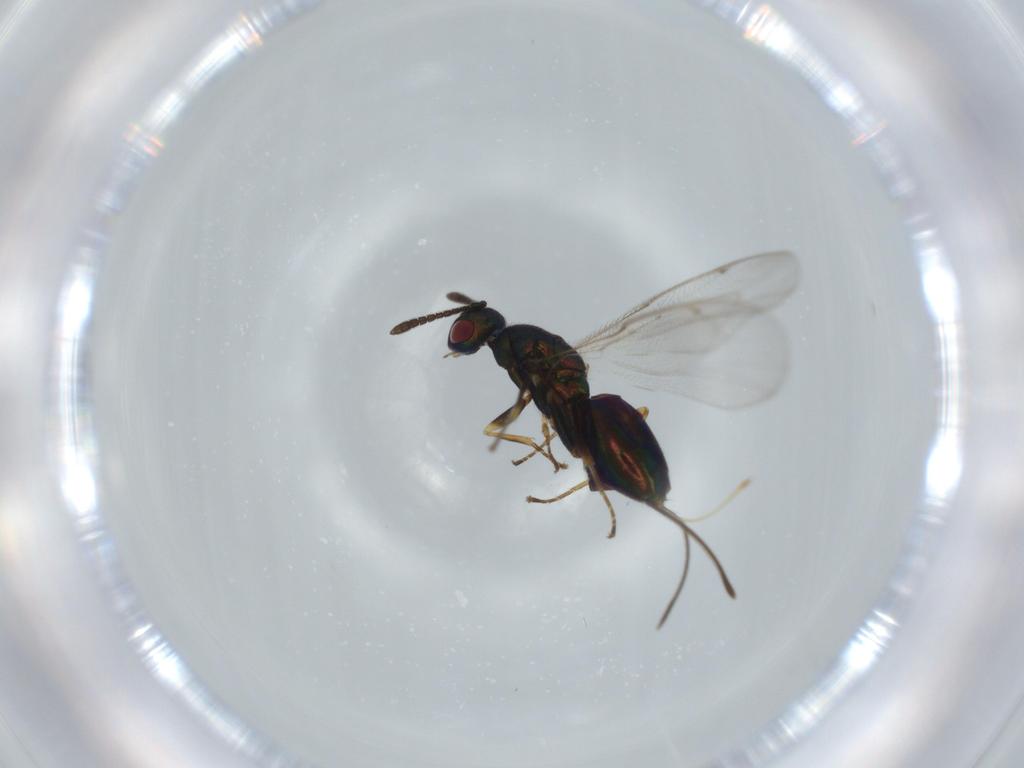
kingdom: Animalia
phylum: Arthropoda
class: Insecta
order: Hymenoptera
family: Torymidae
